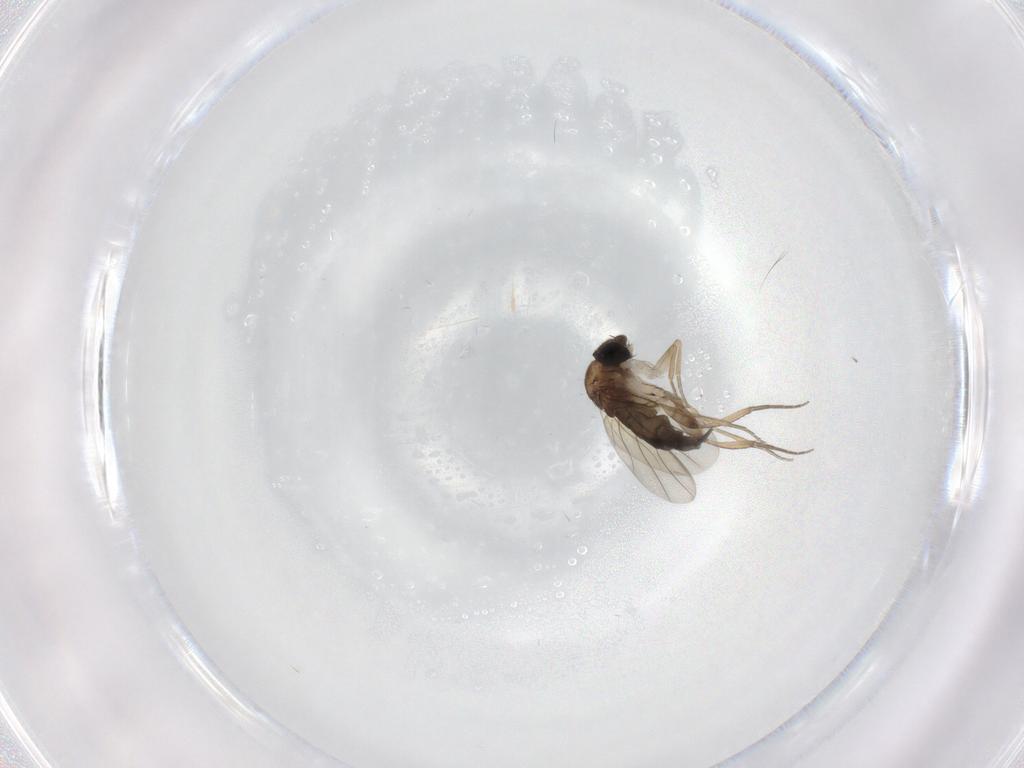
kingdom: Animalia
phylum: Arthropoda
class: Insecta
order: Diptera
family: Phoridae
